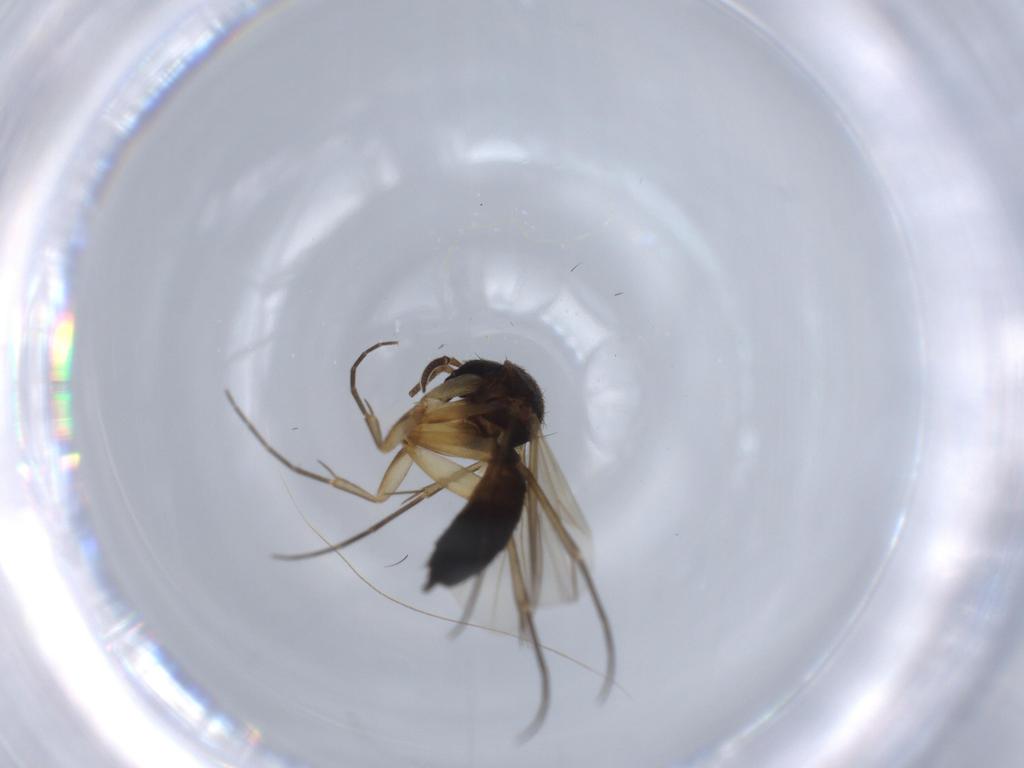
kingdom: Animalia
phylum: Arthropoda
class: Insecta
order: Diptera
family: Mycetophilidae
